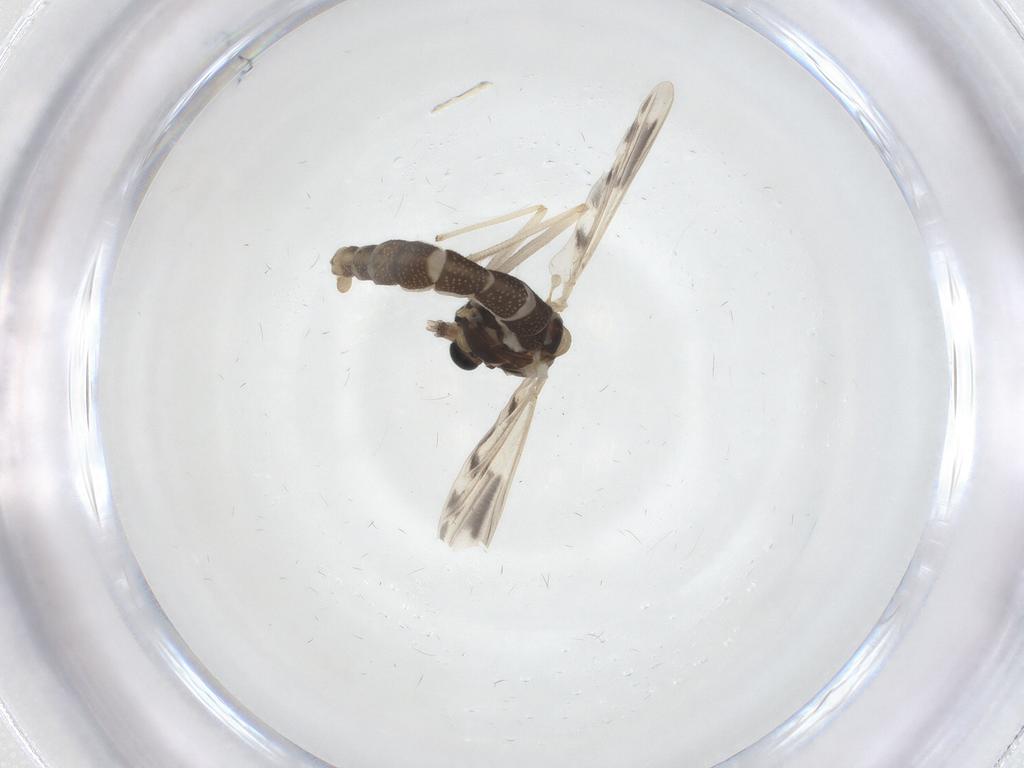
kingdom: Animalia
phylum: Arthropoda
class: Insecta
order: Diptera
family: Chironomidae
